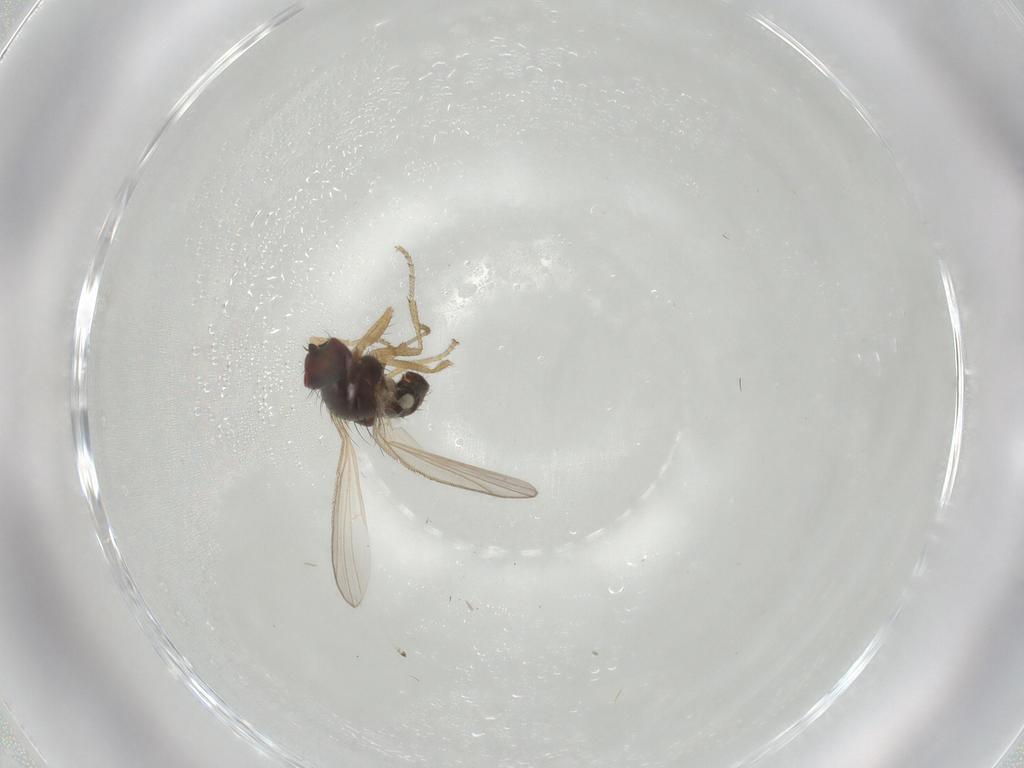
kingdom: Animalia
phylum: Arthropoda
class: Insecta
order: Diptera
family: Heleomyzidae
